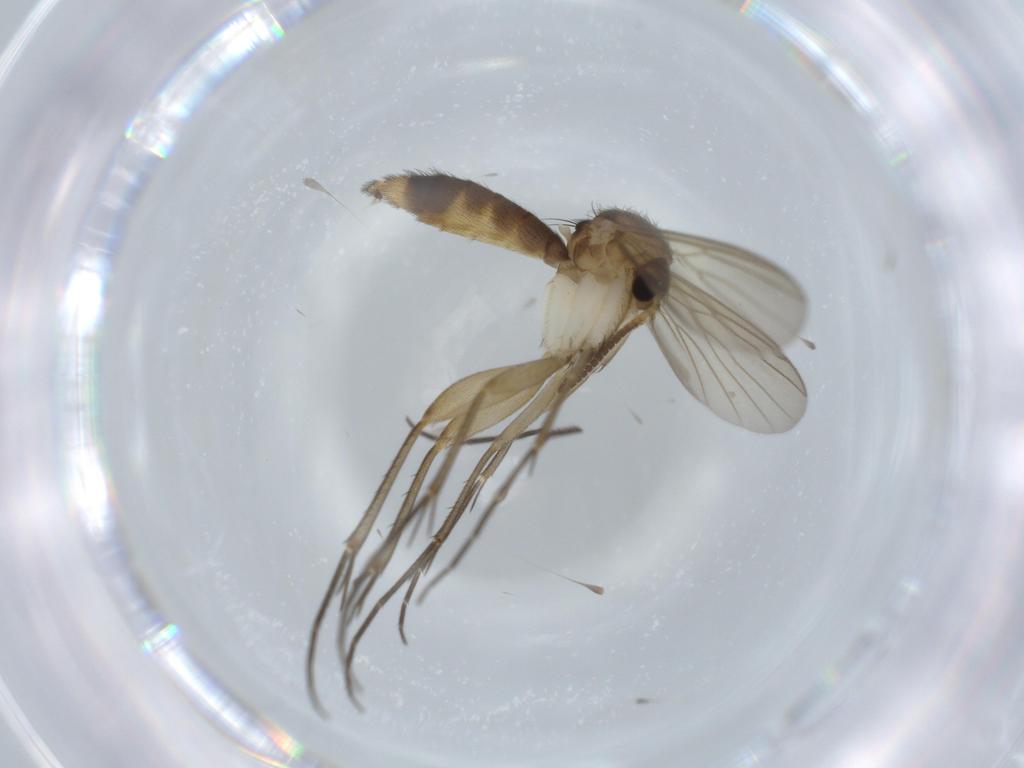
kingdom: Animalia
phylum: Arthropoda
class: Insecta
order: Diptera
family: Mycetophilidae
